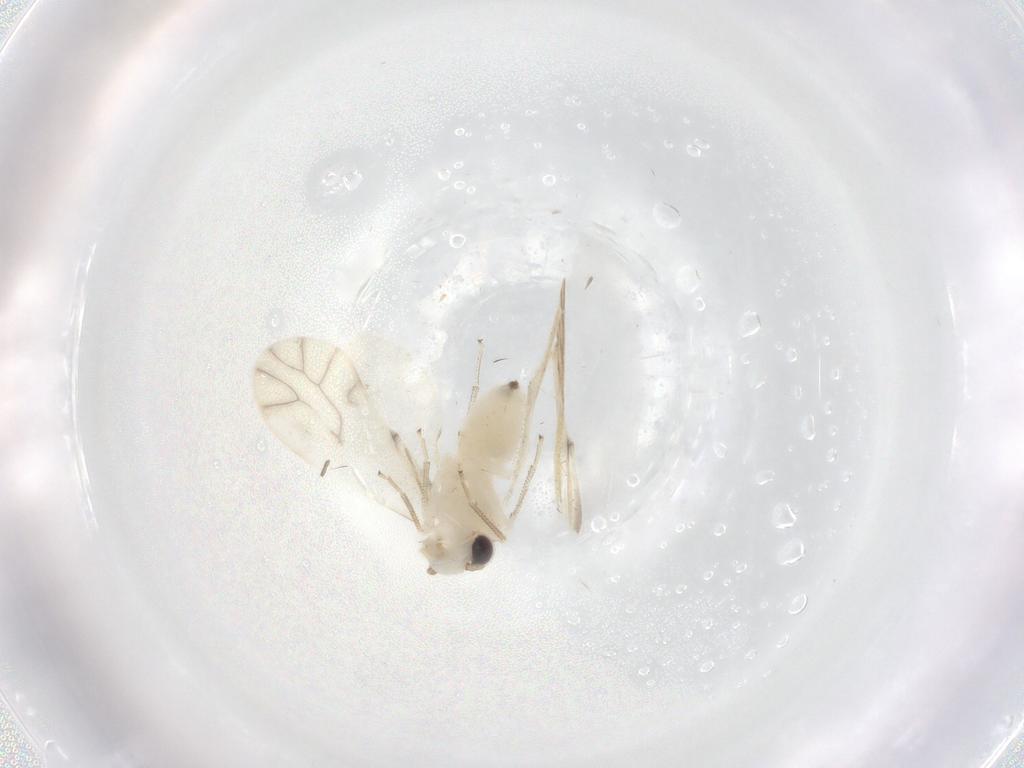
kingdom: Animalia
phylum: Arthropoda
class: Insecta
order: Psocodea
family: Caeciliusidae
